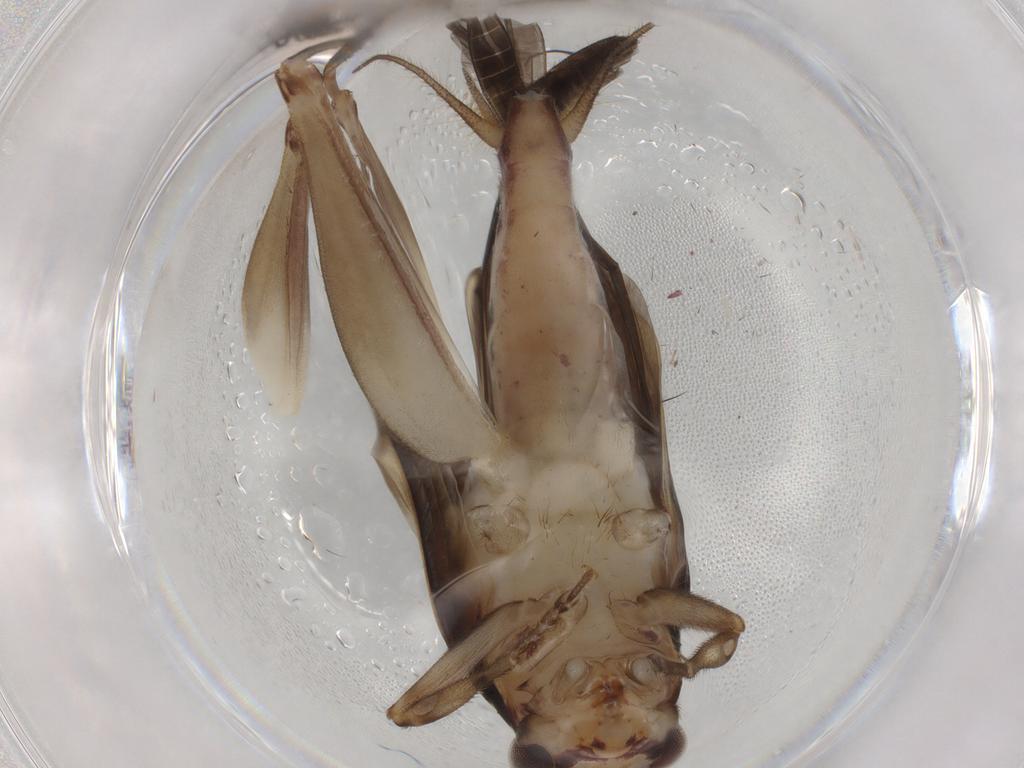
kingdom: Animalia
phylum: Arthropoda
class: Insecta
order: Orthoptera
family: Trigonidiidae
